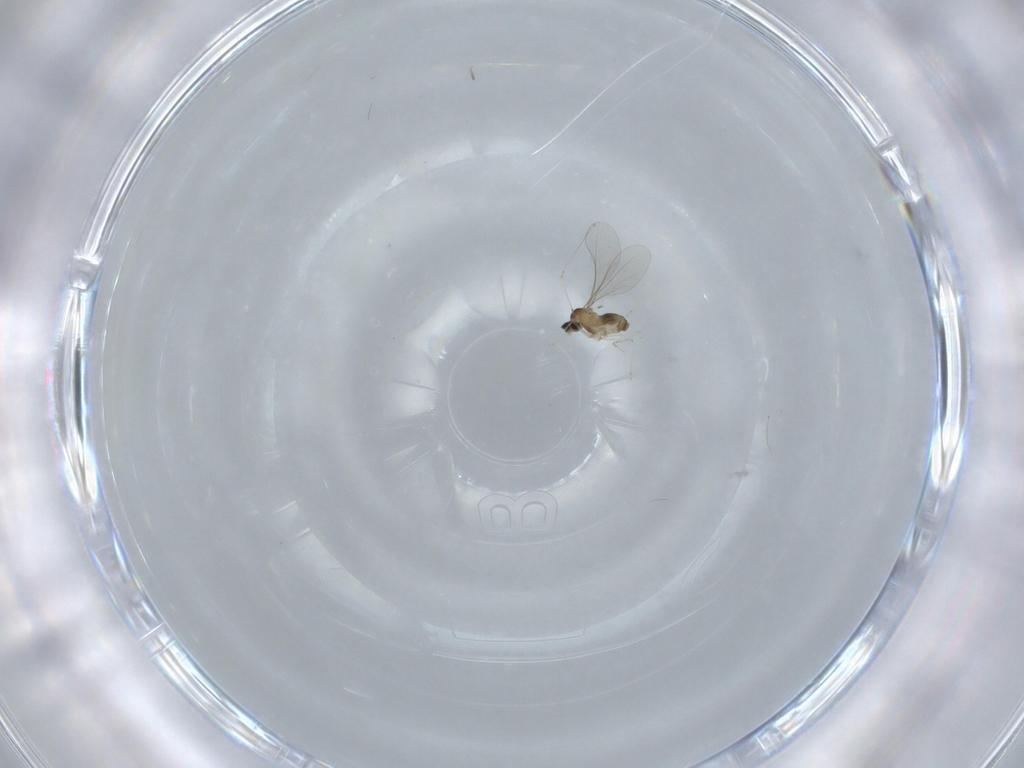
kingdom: Animalia
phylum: Arthropoda
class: Insecta
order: Diptera
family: Cecidomyiidae
